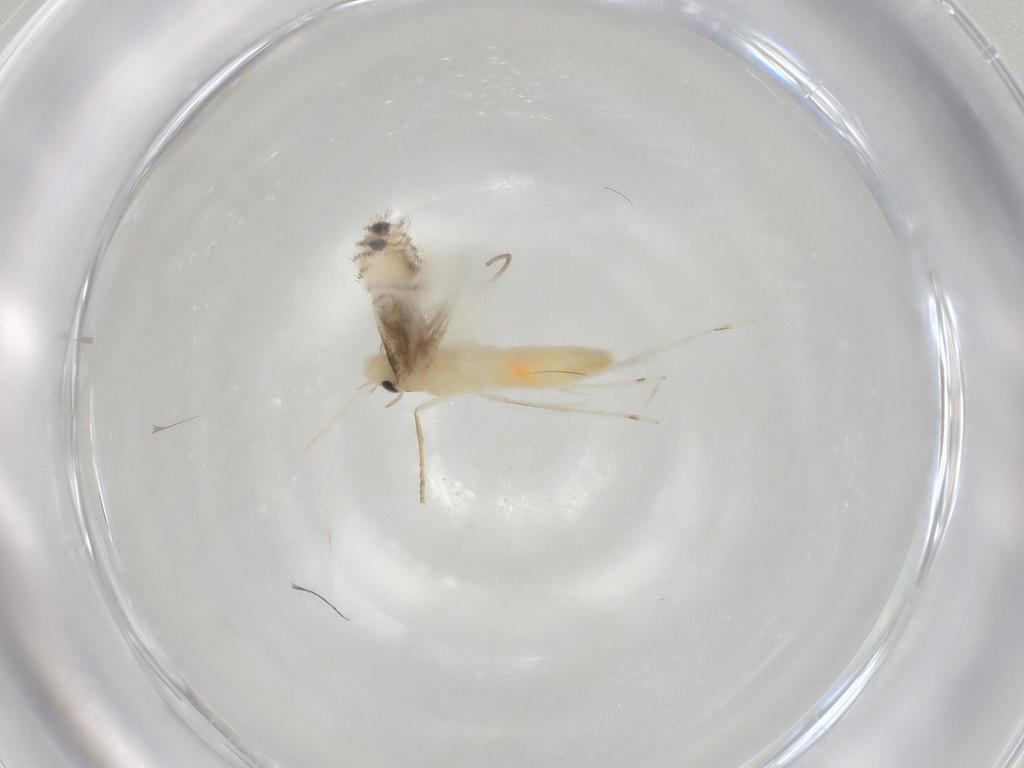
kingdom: Animalia
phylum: Arthropoda
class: Insecta
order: Lepidoptera
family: Gracillariidae
